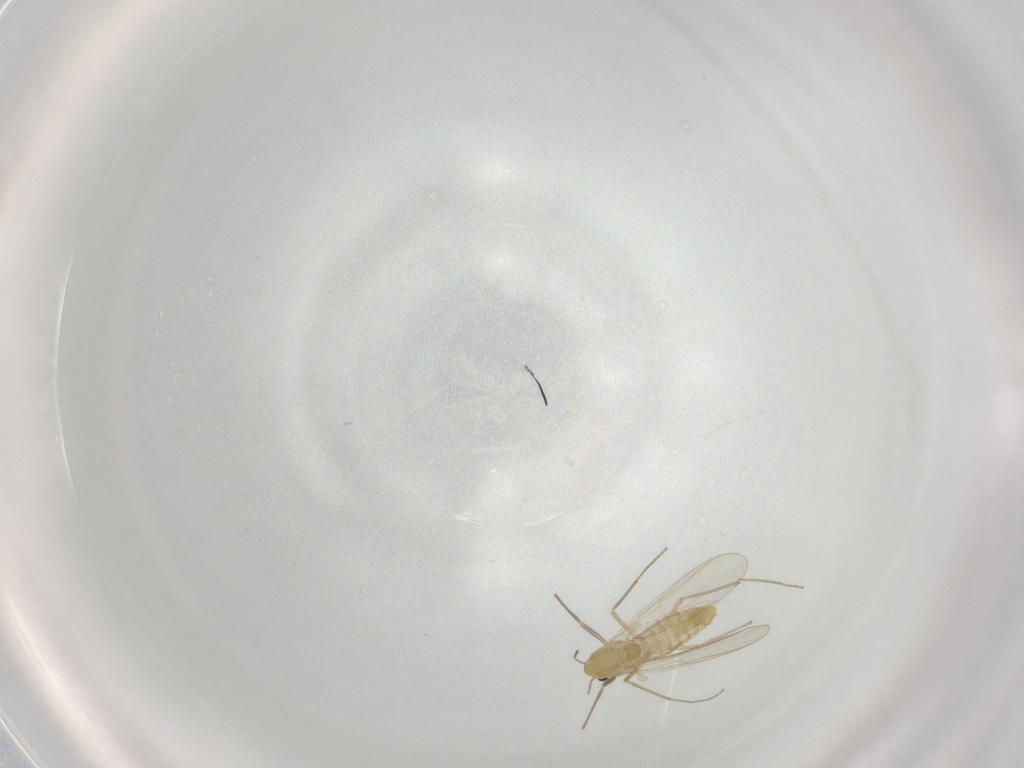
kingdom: Animalia
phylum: Arthropoda
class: Insecta
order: Diptera
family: Chironomidae
